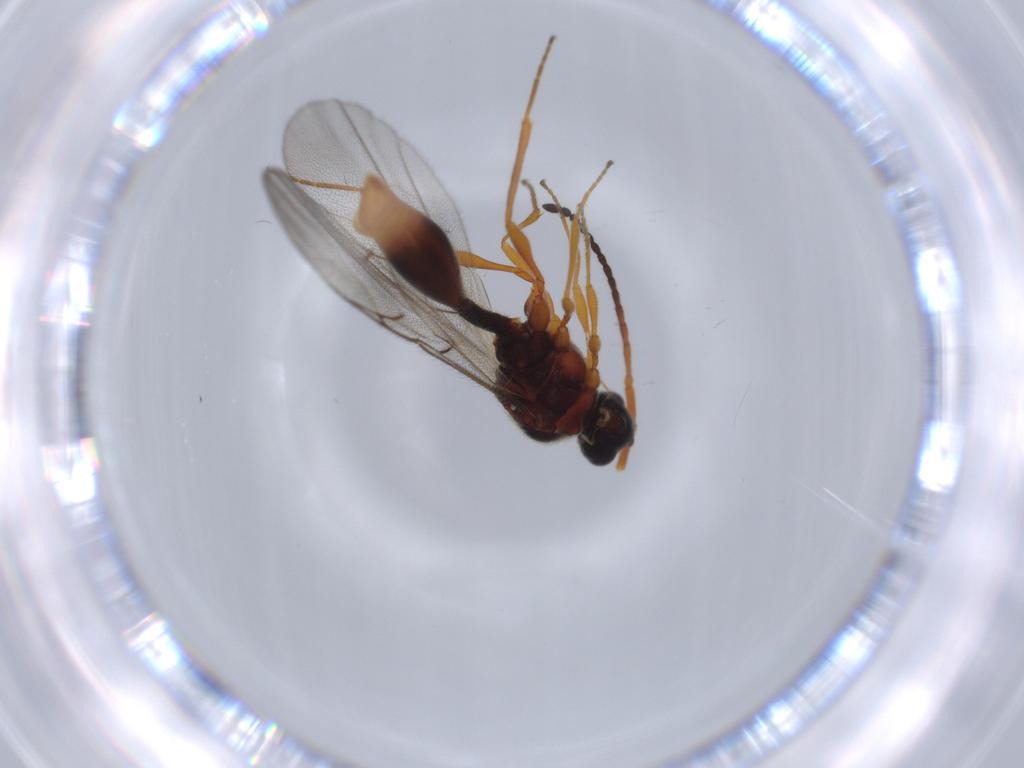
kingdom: Animalia
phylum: Arthropoda
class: Insecta
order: Hymenoptera
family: Diapriidae
